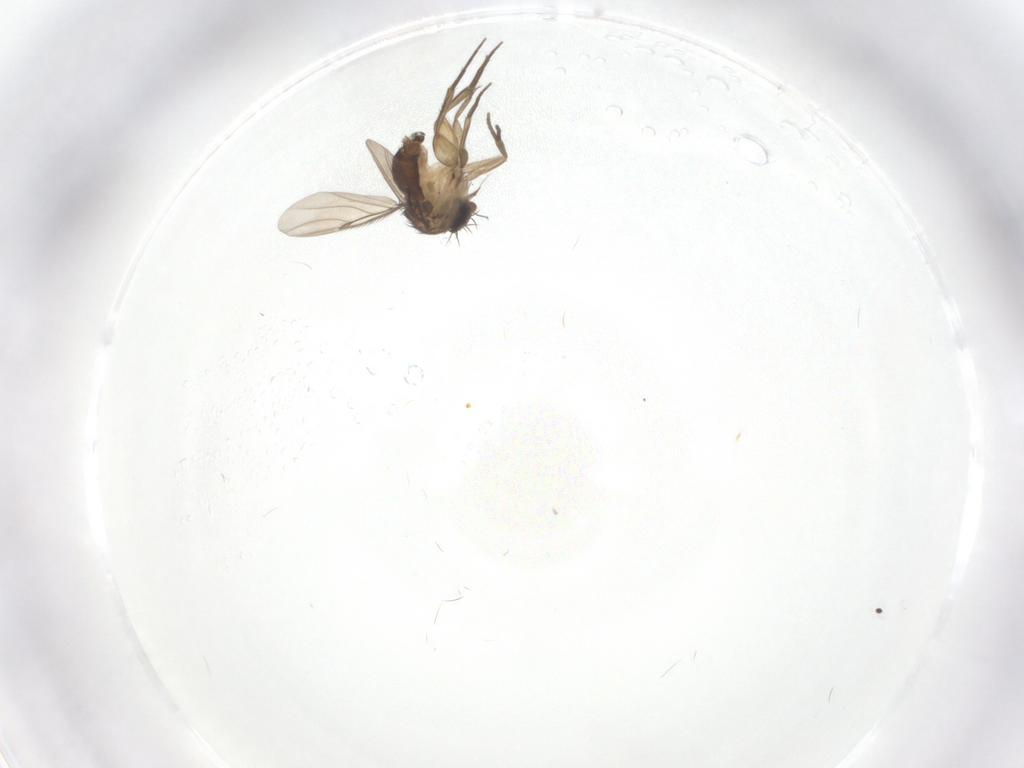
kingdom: Animalia
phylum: Arthropoda
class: Insecta
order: Diptera
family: Phoridae
